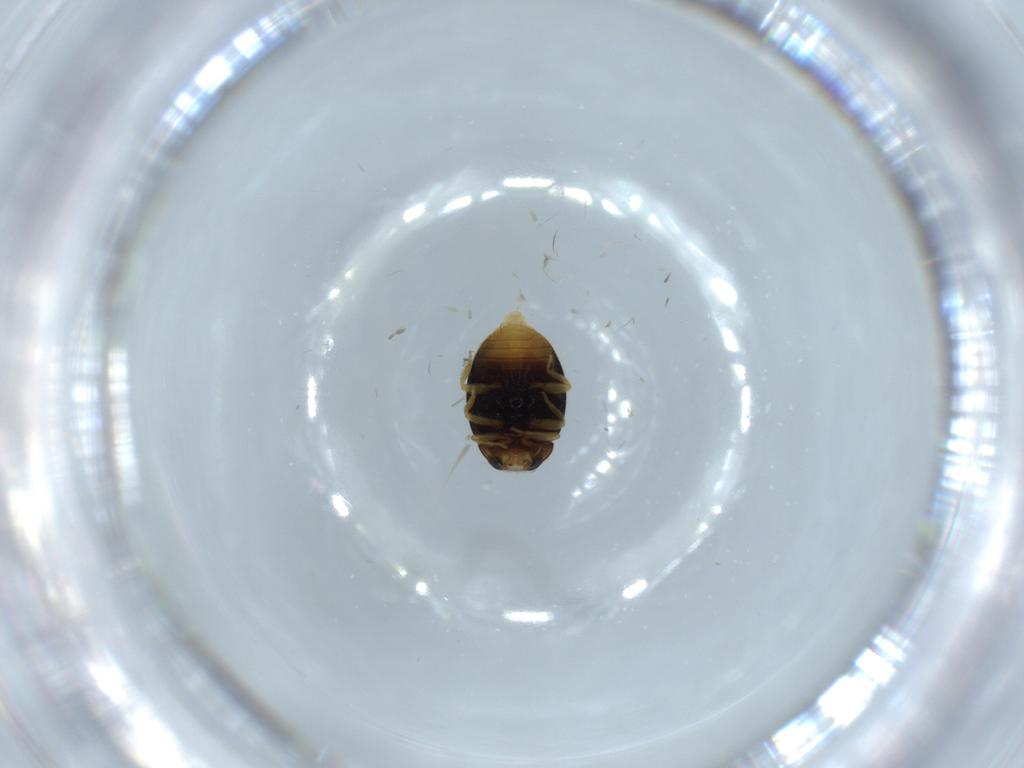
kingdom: Animalia
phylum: Arthropoda
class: Insecta
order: Coleoptera
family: Coccinellidae
